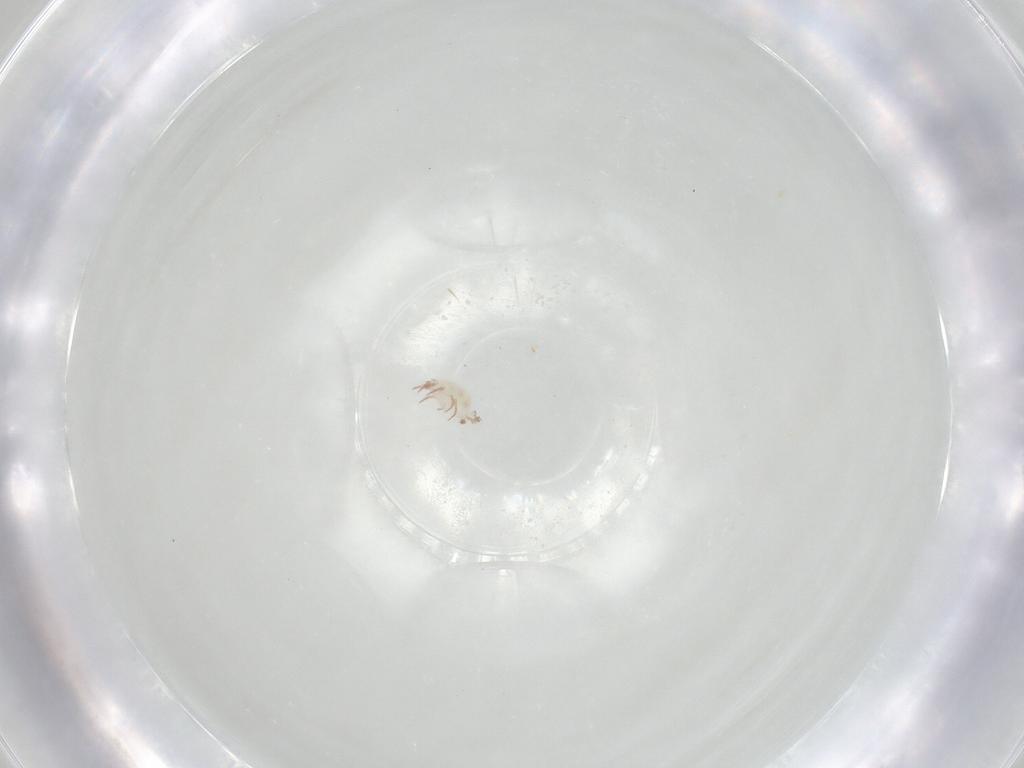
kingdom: Animalia
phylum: Arthropoda
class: Arachnida
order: Sarcoptiformes
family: Acaridae
